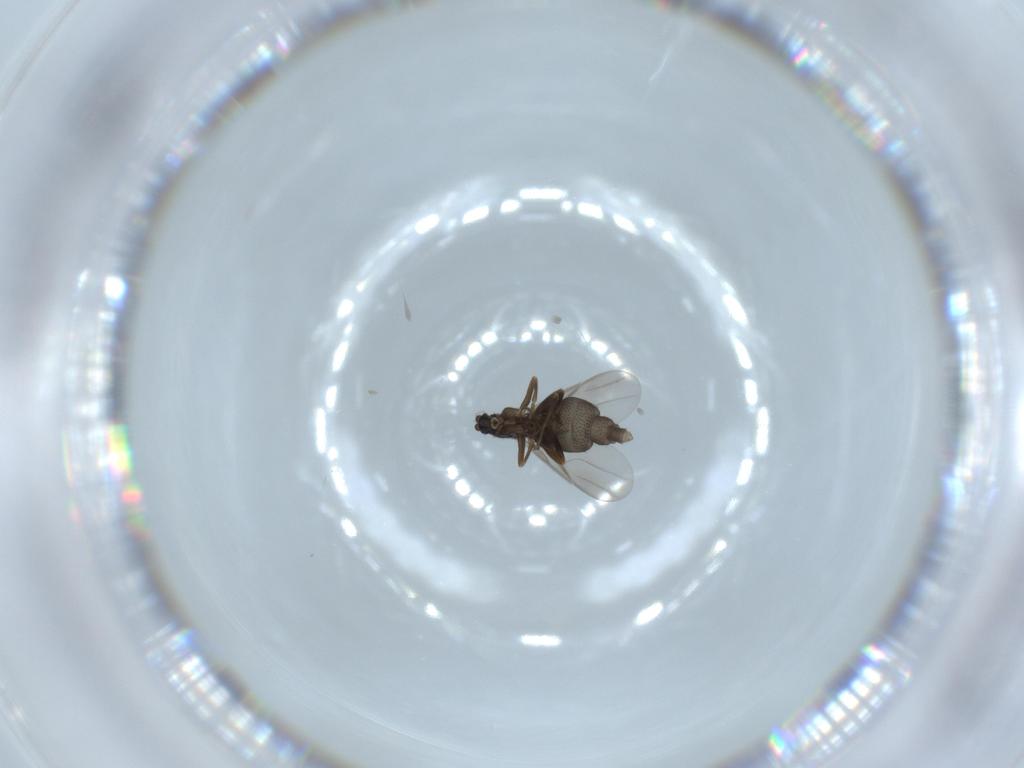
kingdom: Animalia
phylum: Arthropoda
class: Insecta
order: Diptera
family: Phoridae
